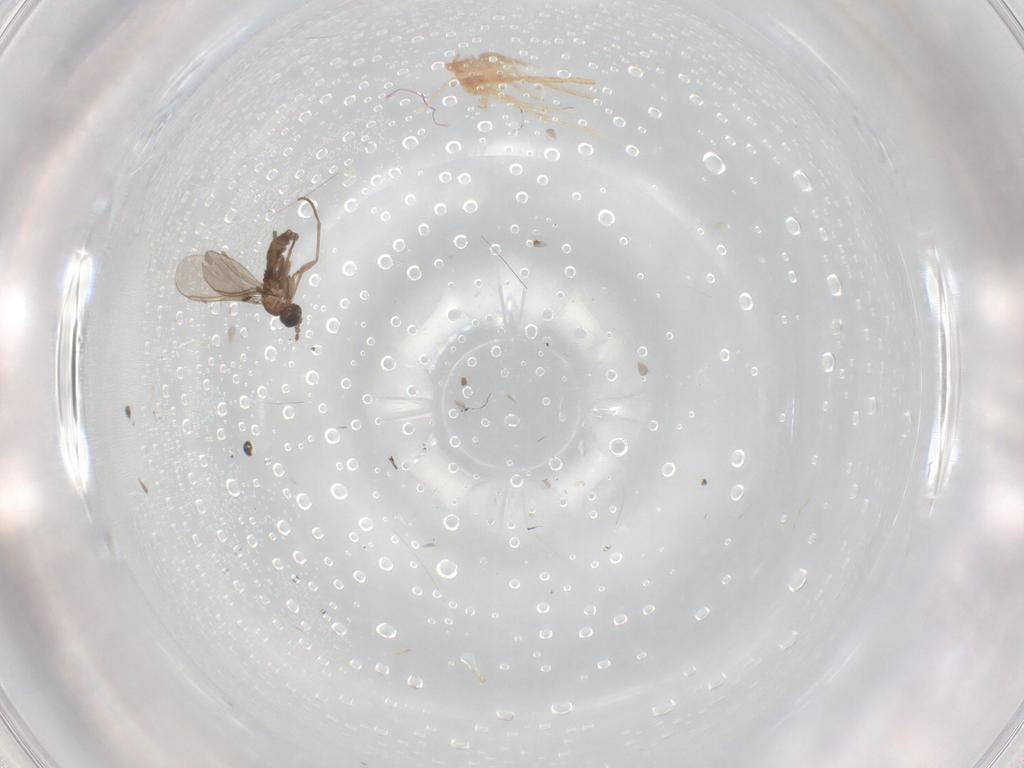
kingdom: Animalia
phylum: Arthropoda
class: Insecta
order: Diptera
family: Sciaridae
